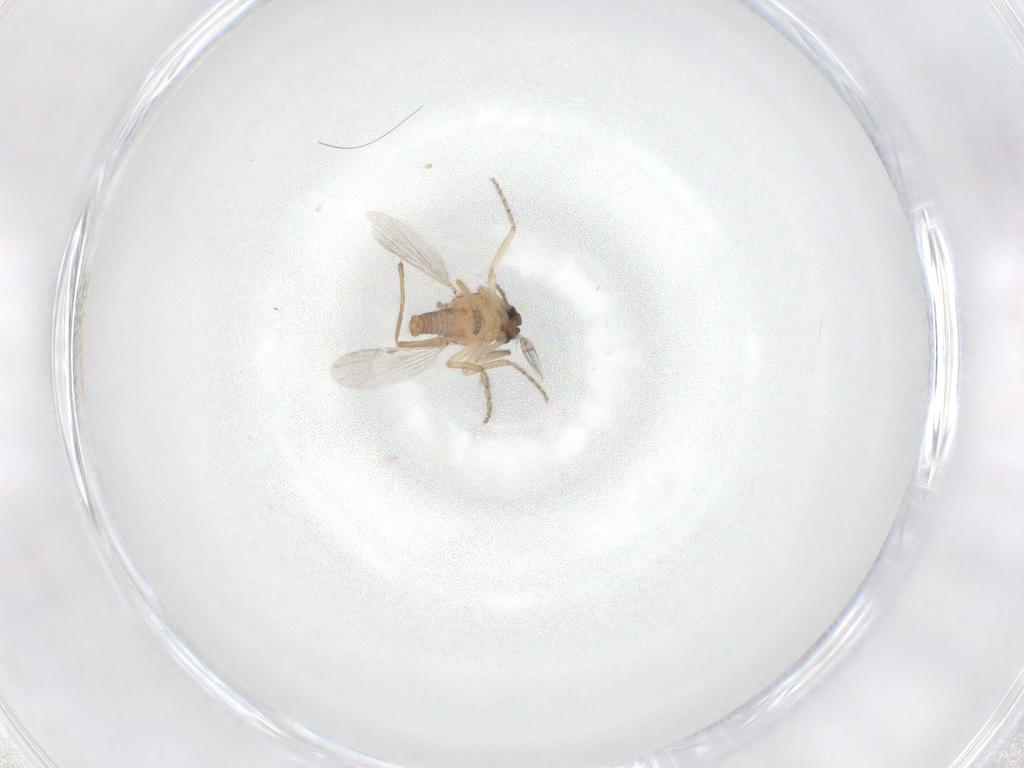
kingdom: Animalia
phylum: Arthropoda
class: Insecta
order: Diptera
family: Ceratopogonidae
